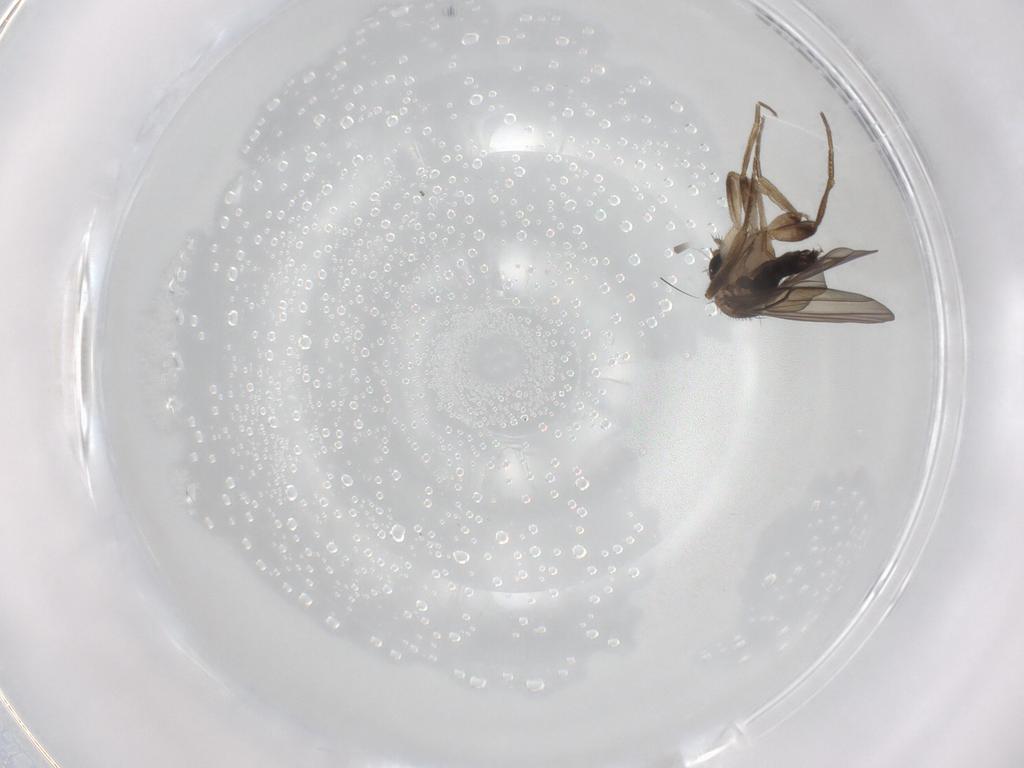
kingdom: Animalia
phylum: Arthropoda
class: Insecta
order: Diptera
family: Phoridae
